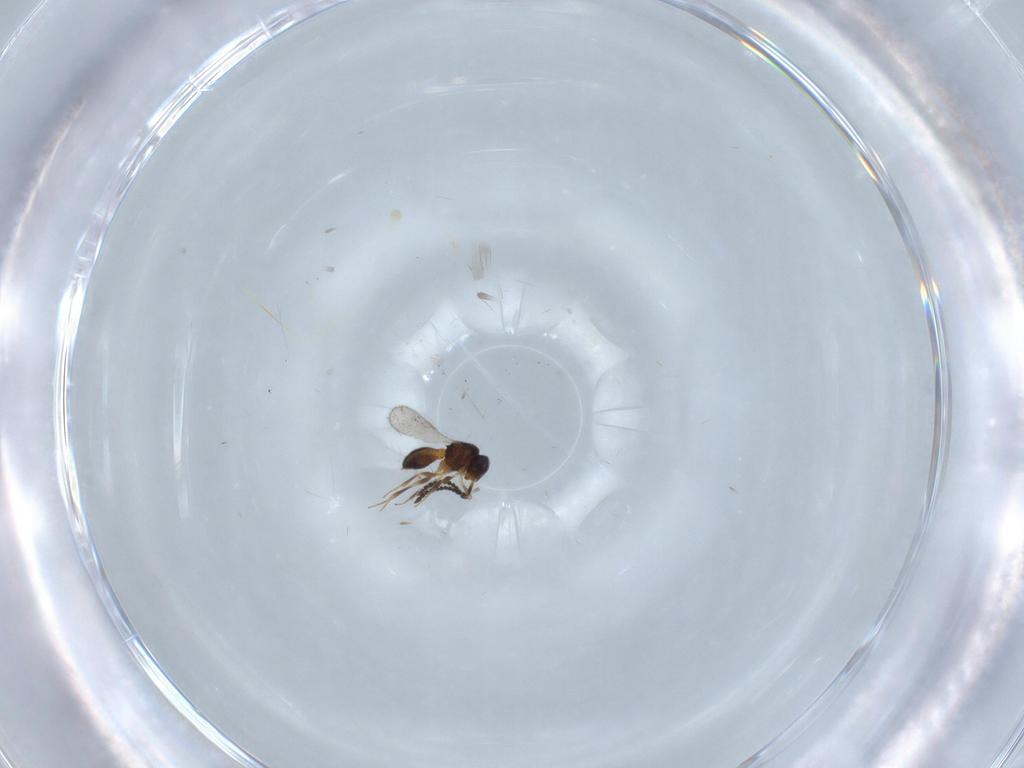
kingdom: Animalia
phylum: Arthropoda
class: Insecta
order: Hymenoptera
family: Scelionidae
